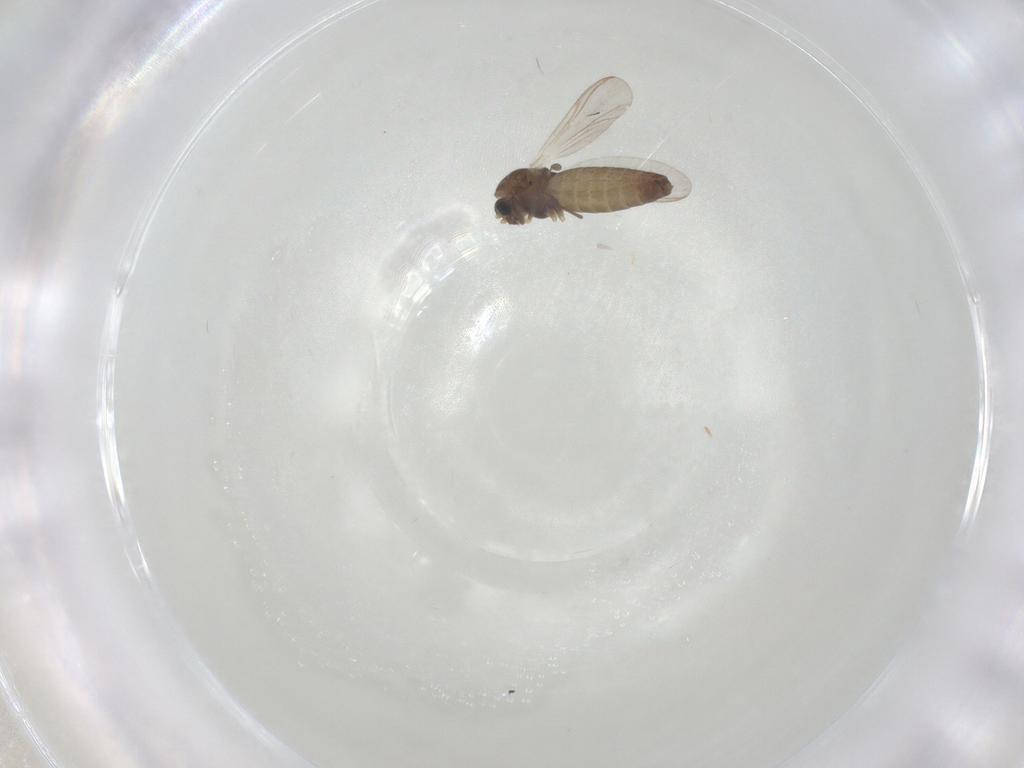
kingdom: Animalia
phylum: Arthropoda
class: Insecta
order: Diptera
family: Chironomidae
